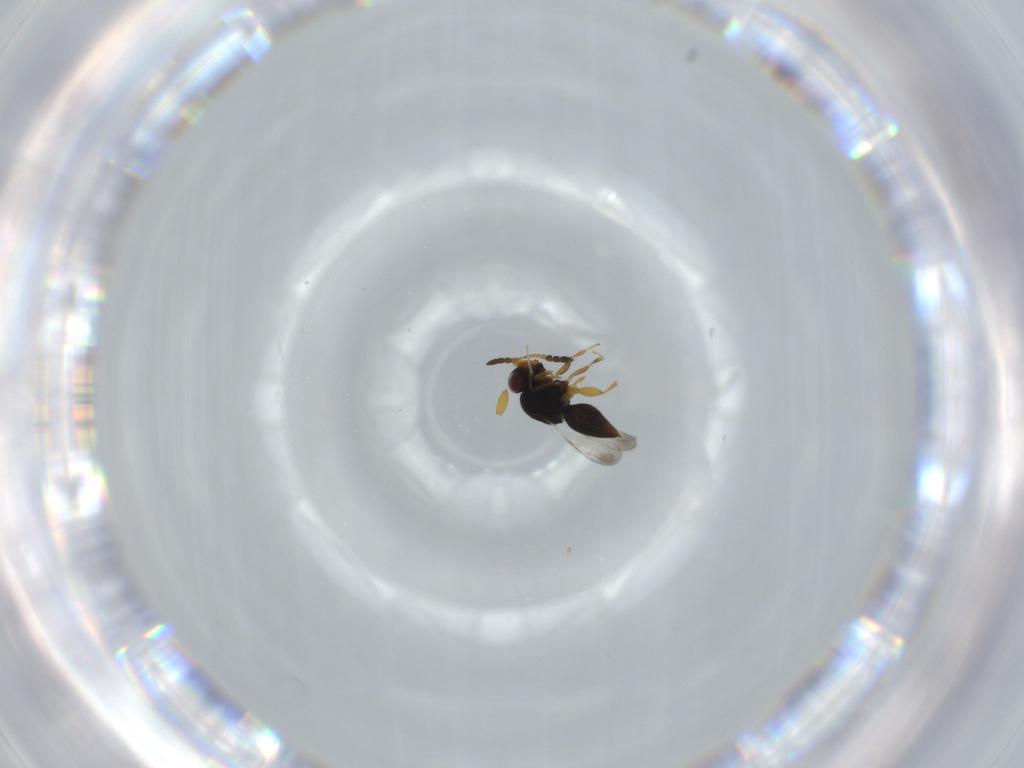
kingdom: Animalia
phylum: Arthropoda
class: Insecta
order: Hymenoptera
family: Ceraphronidae
